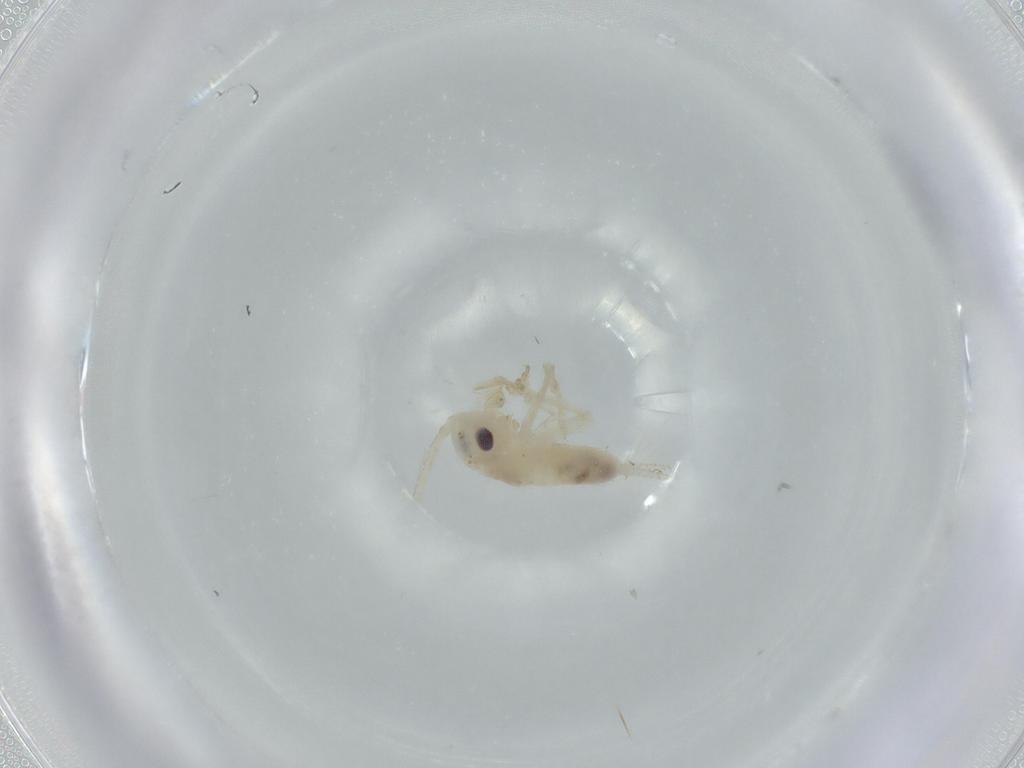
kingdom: Animalia
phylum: Arthropoda
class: Insecta
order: Orthoptera
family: Trigonidiidae
